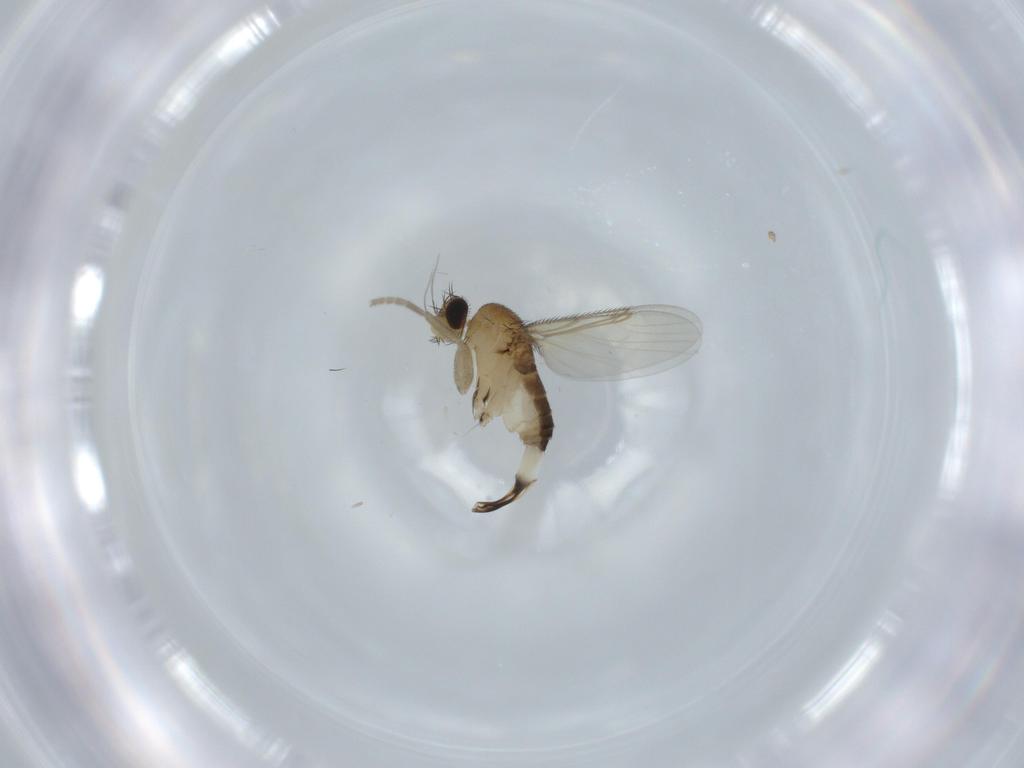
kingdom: Animalia
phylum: Arthropoda
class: Insecta
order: Diptera
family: Phoridae
